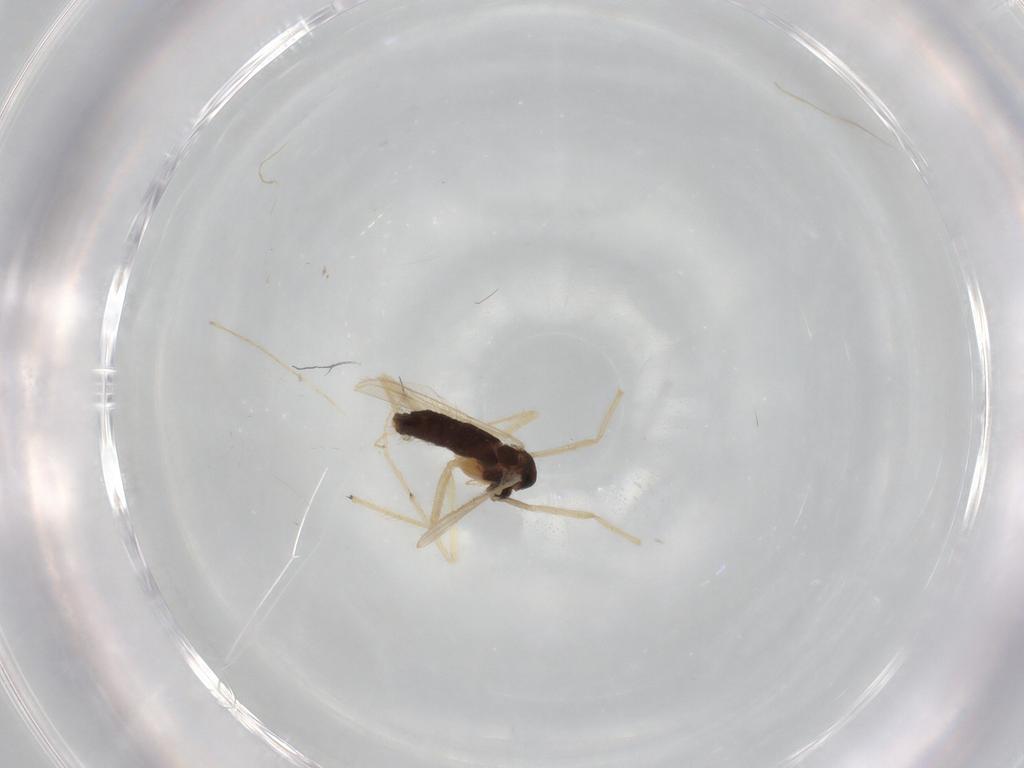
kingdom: Animalia
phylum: Arthropoda
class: Insecta
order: Diptera
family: Chironomidae
